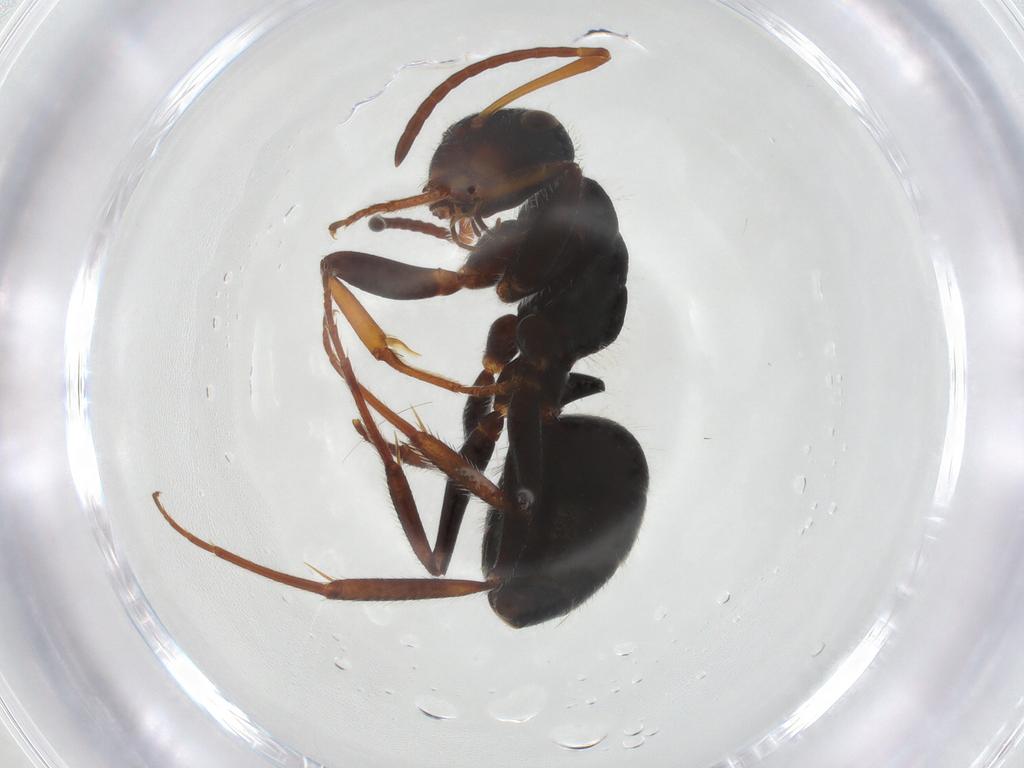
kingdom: Animalia
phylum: Arthropoda
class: Insecta
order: Hymenoptera
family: Formicidae
